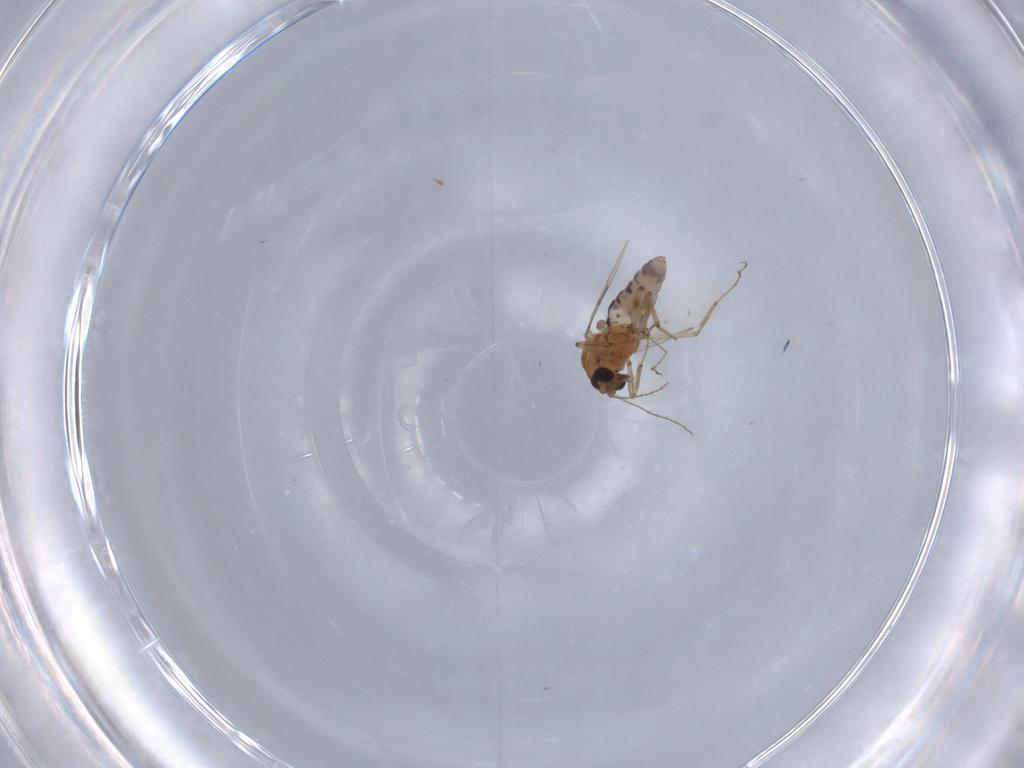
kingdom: Animalia
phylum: Arthropoda
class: Insecta
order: Diptera
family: Ceratopogonidae
